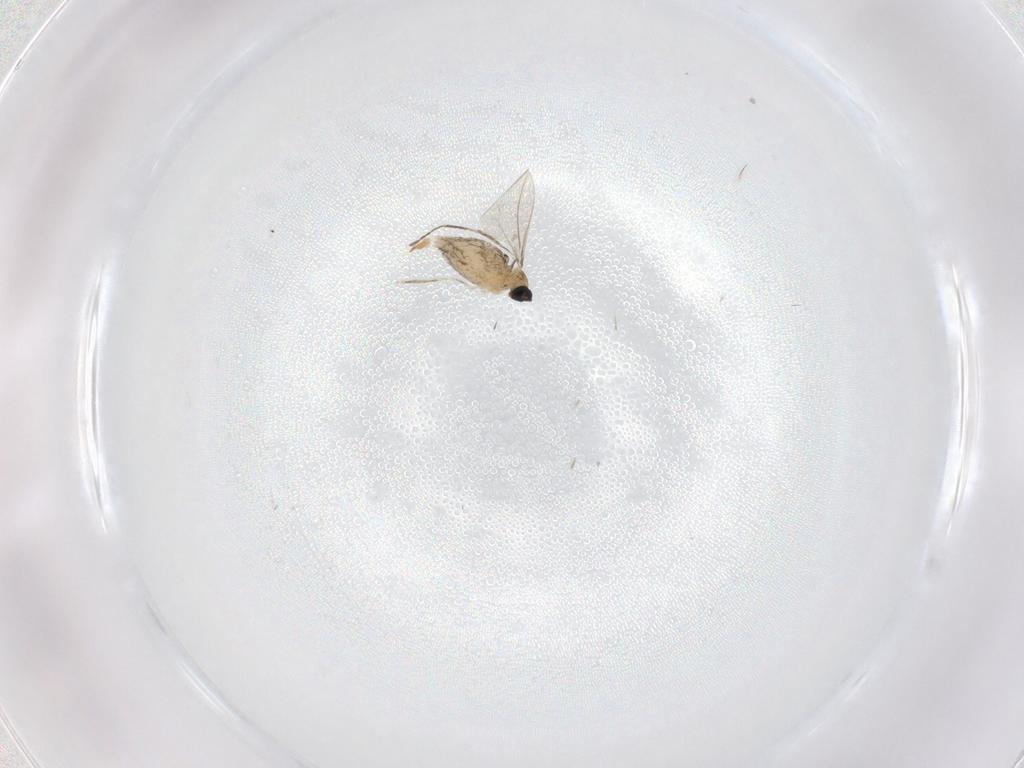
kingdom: Animalia
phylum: Arthropoda
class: Insecta
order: Diptera
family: Cecidomyiidae
